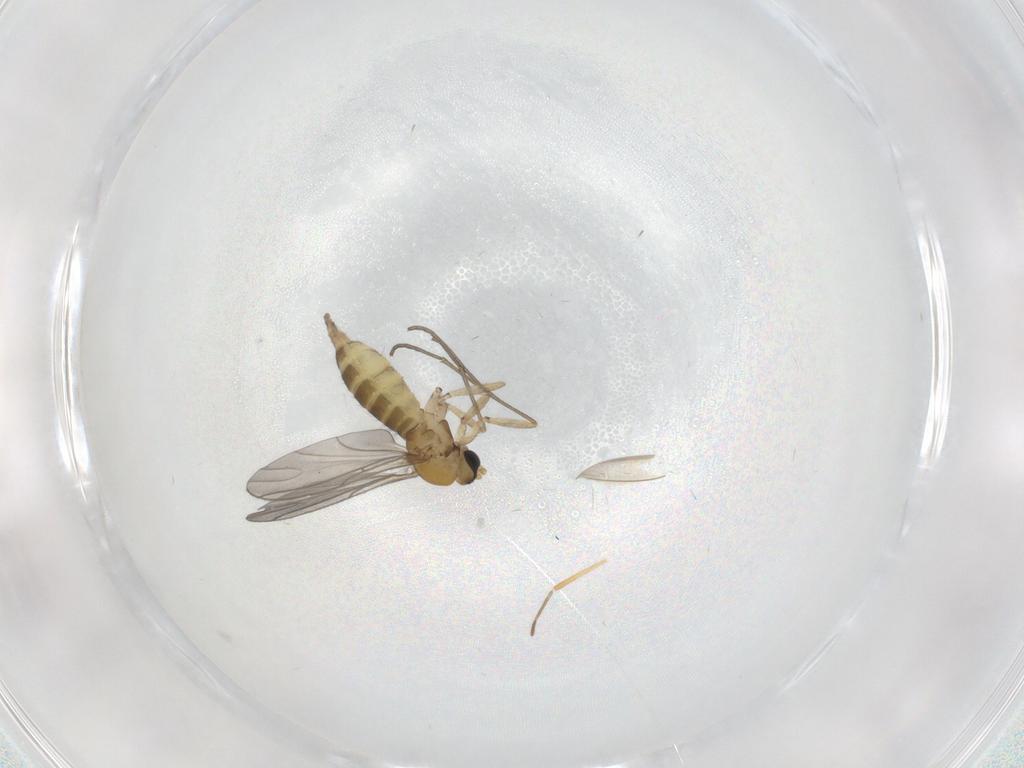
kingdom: Animalia
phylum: Arthropoda
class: Insecta
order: Diptera
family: Sciaridae
